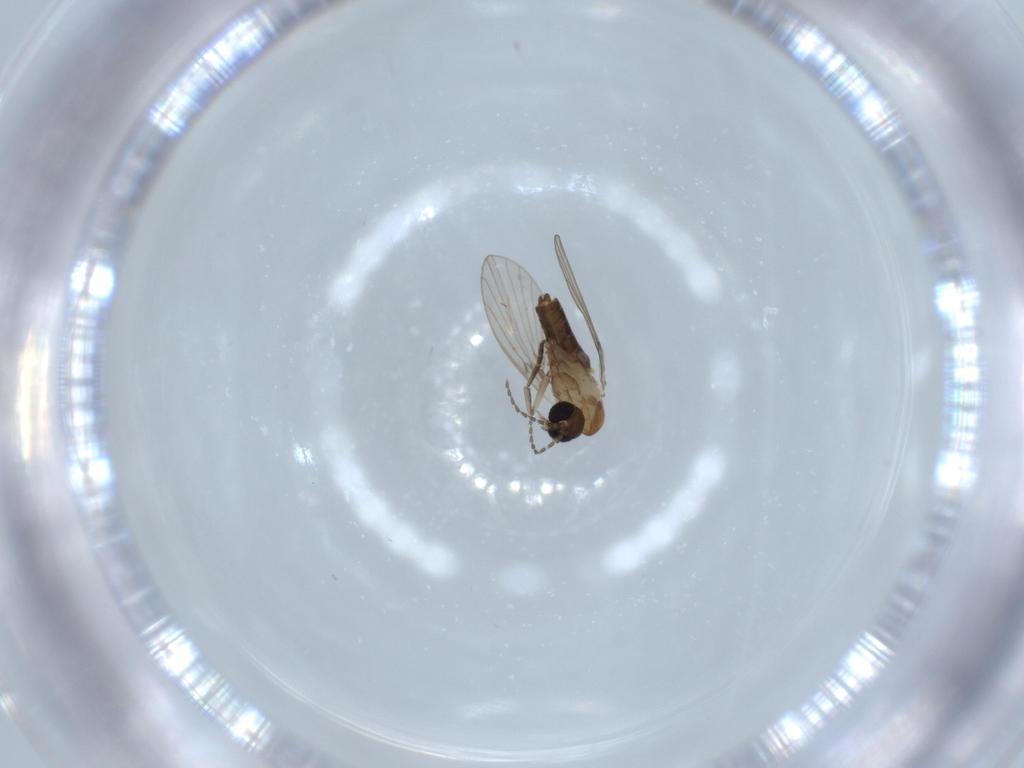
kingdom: Animalia
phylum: Arthropoda
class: Insecta
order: Diptera
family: Psychodidae
